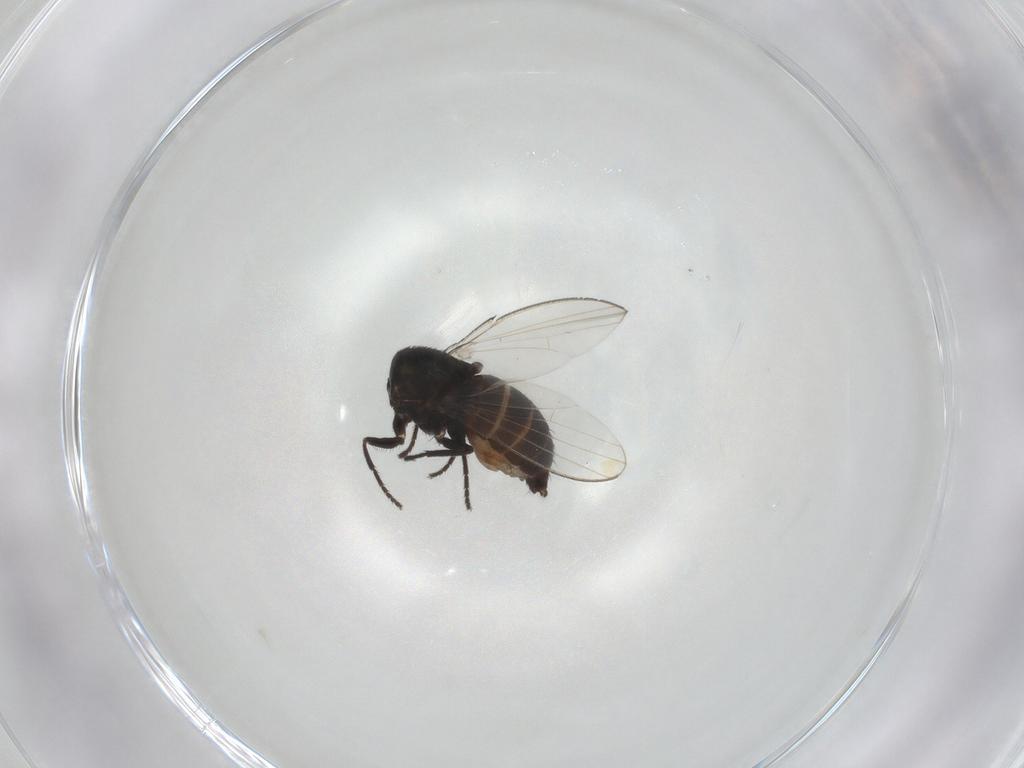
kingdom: Animalia
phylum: Arthropoda
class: Insecta
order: Diptera
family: Milichiidae
